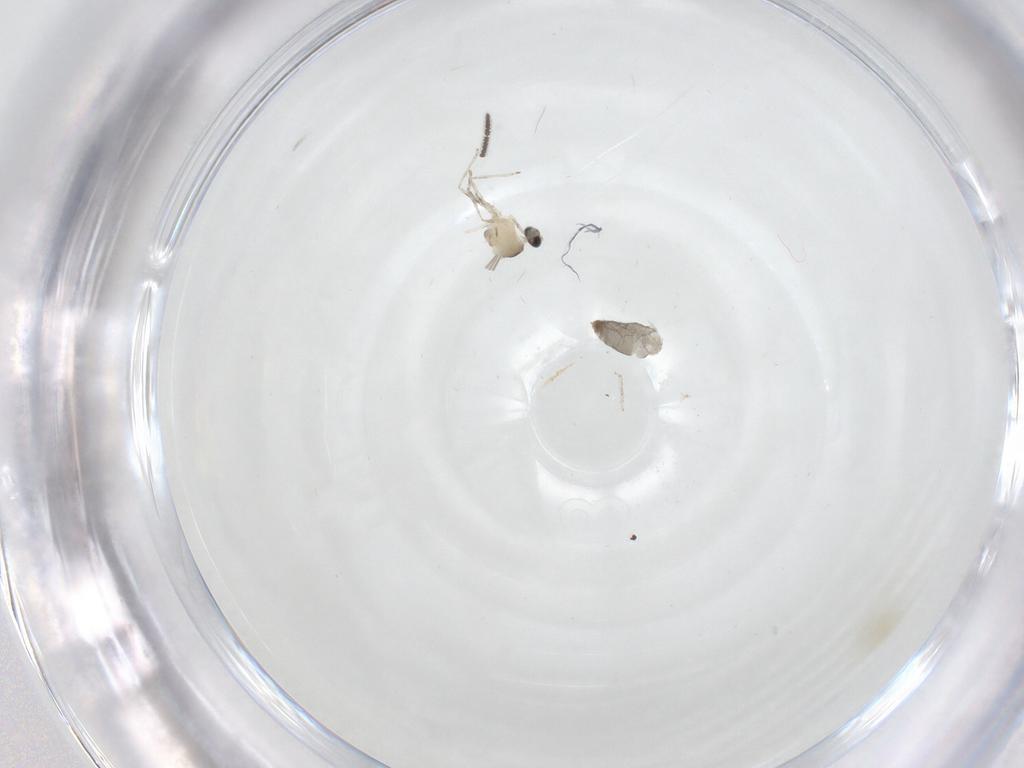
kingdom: Animalia
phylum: Arthropoda
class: Insecta
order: Diptera
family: Cecidomyiidae
